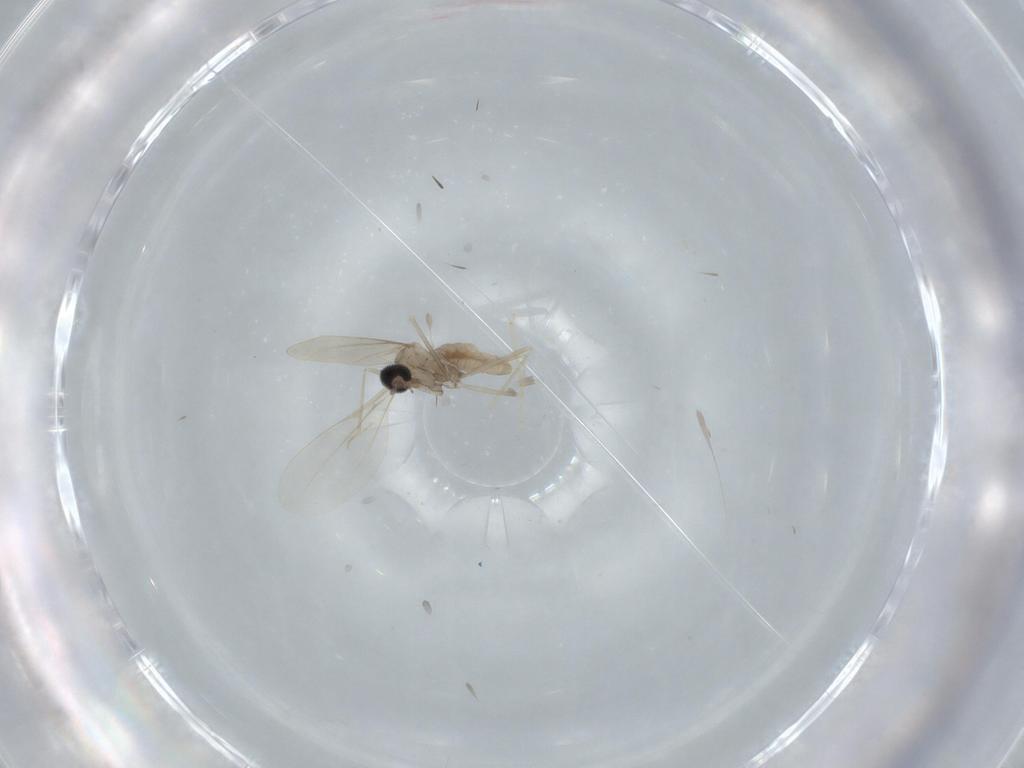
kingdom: Animalia
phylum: Arthropoda
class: Insecta
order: Diptera
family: Cecidomyiidae
